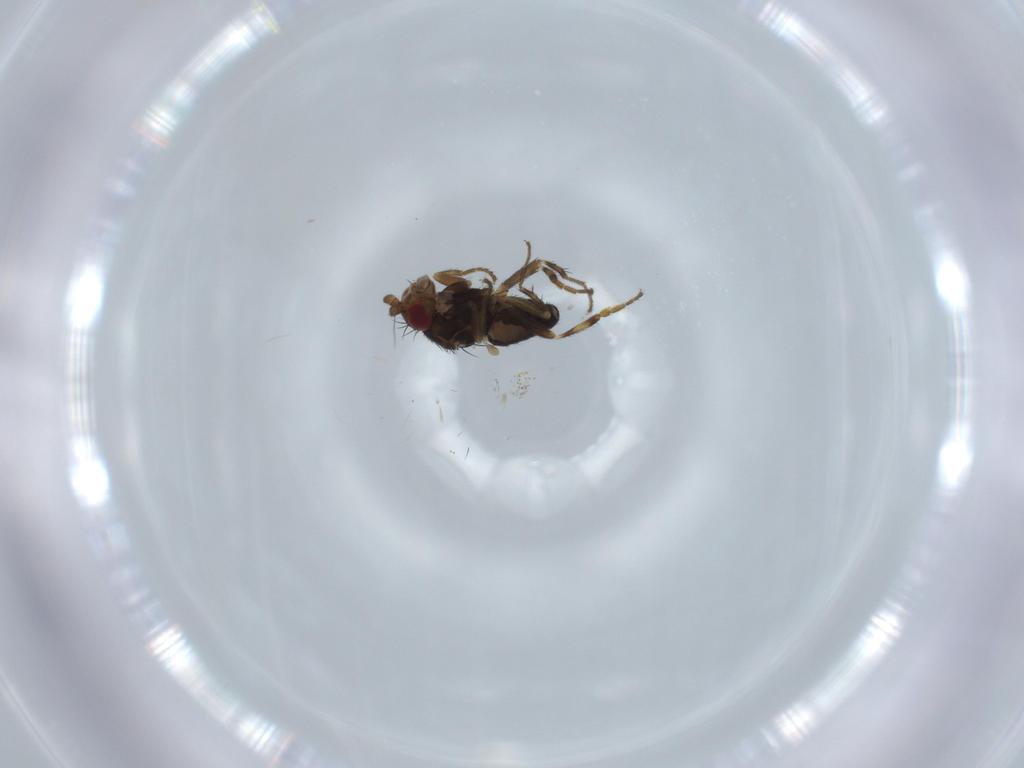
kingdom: Animalia
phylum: Arthropoda
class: Insecta
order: Diptera
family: Sphaeroceridae
